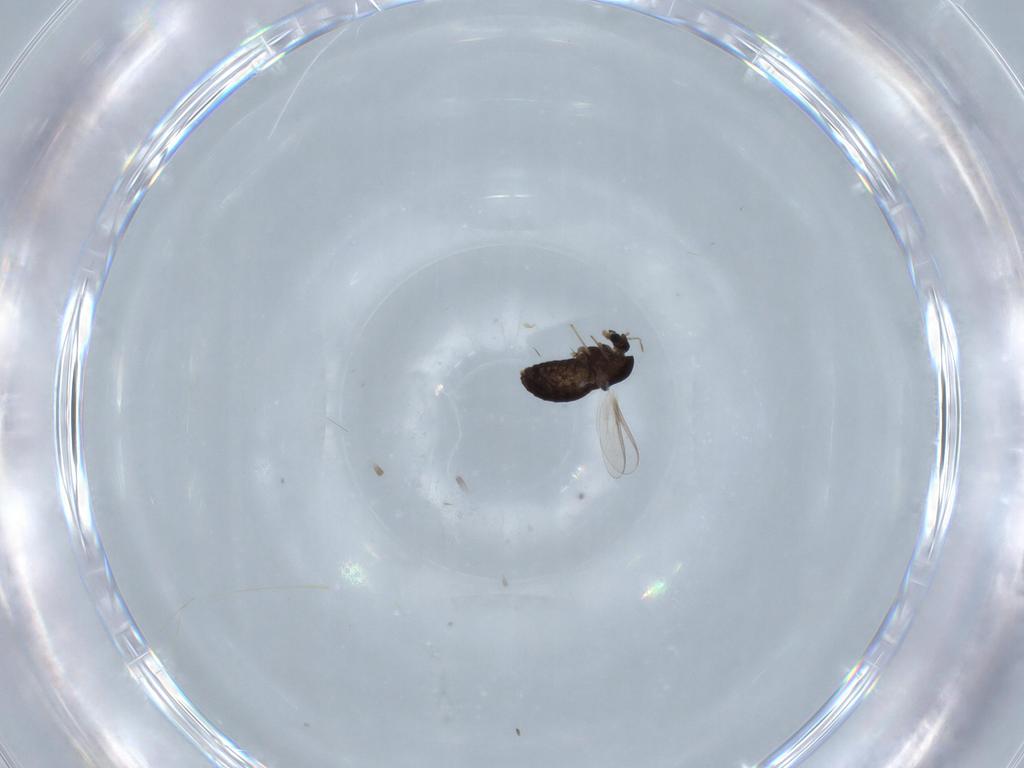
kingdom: Animalia
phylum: Arthropoda
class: Insecta
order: Diptera
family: Chironomidae
